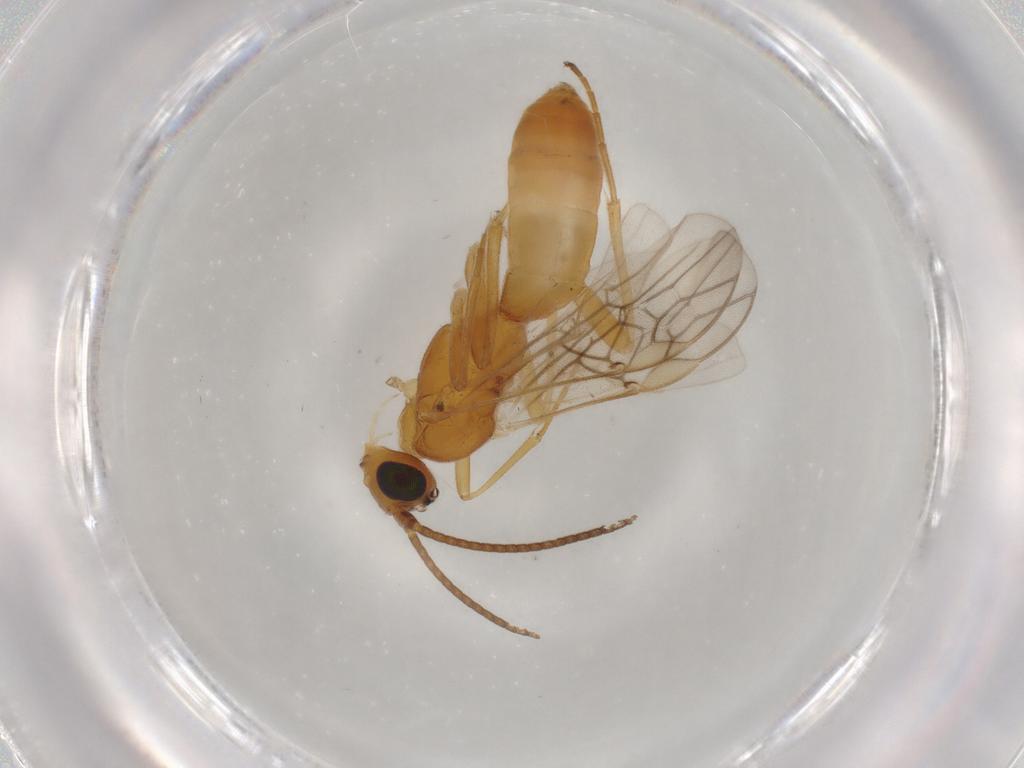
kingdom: Animalia
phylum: Arthropoda
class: Insecta
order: Hymenoptera
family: Braconidae
